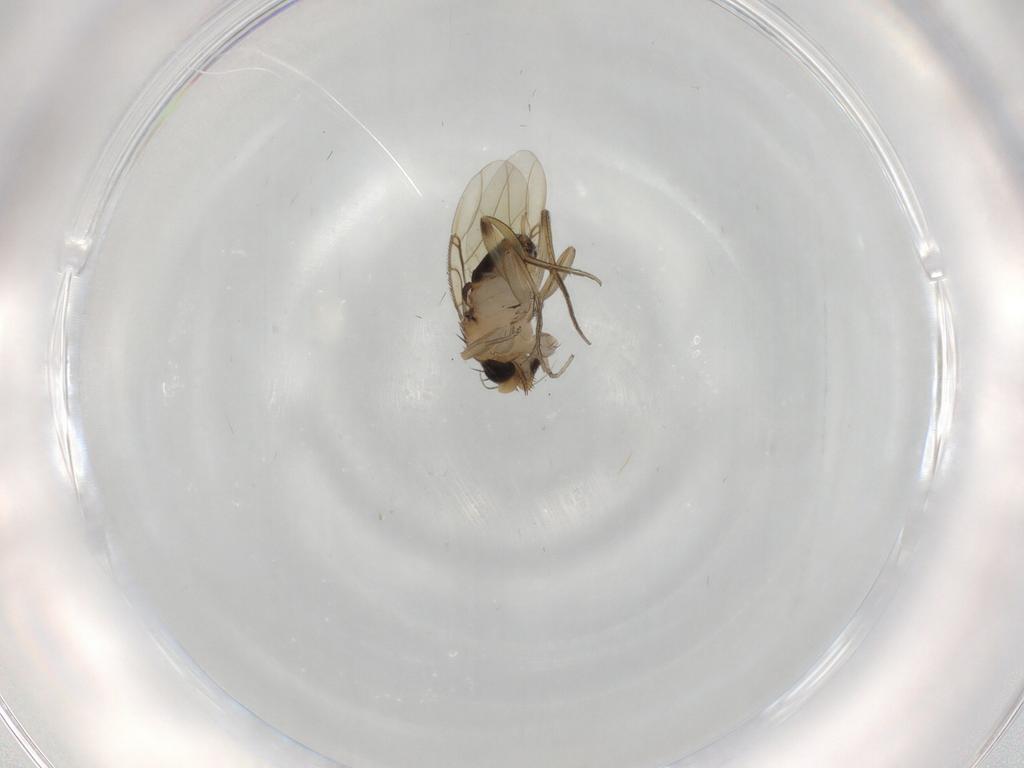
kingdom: Animalia
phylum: Arthropoda
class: Insecta
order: Diptera
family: Phoridae
